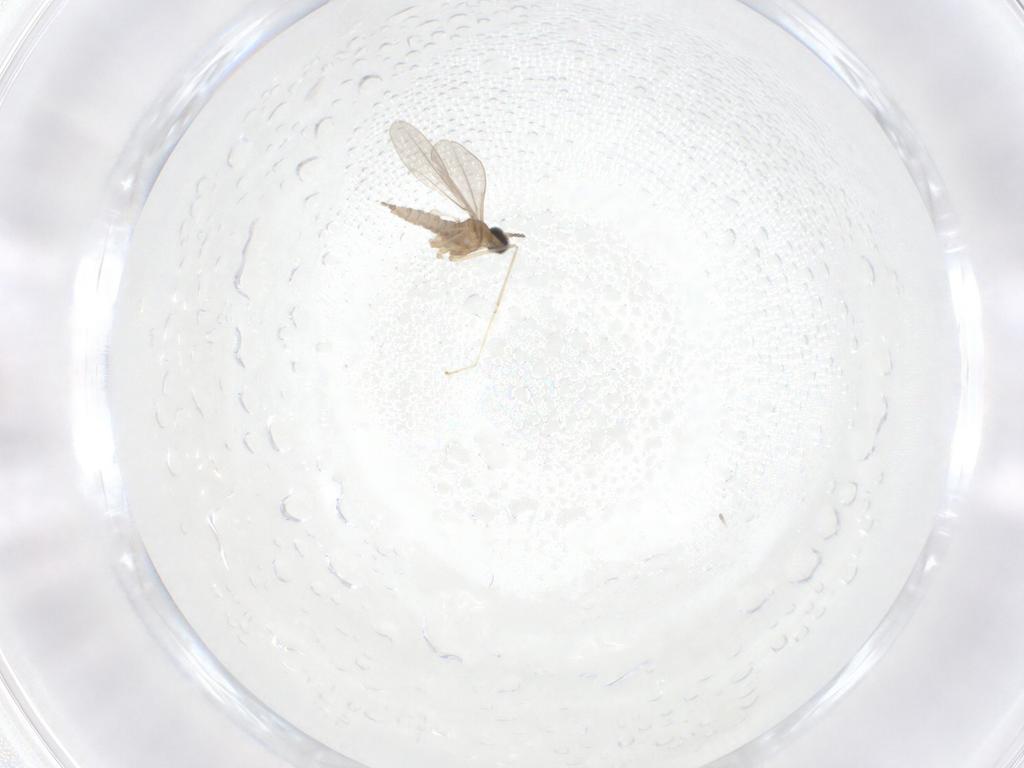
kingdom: Animalia
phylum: Arthropoda
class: Insecta
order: Diptera
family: Cecidomyiidae
